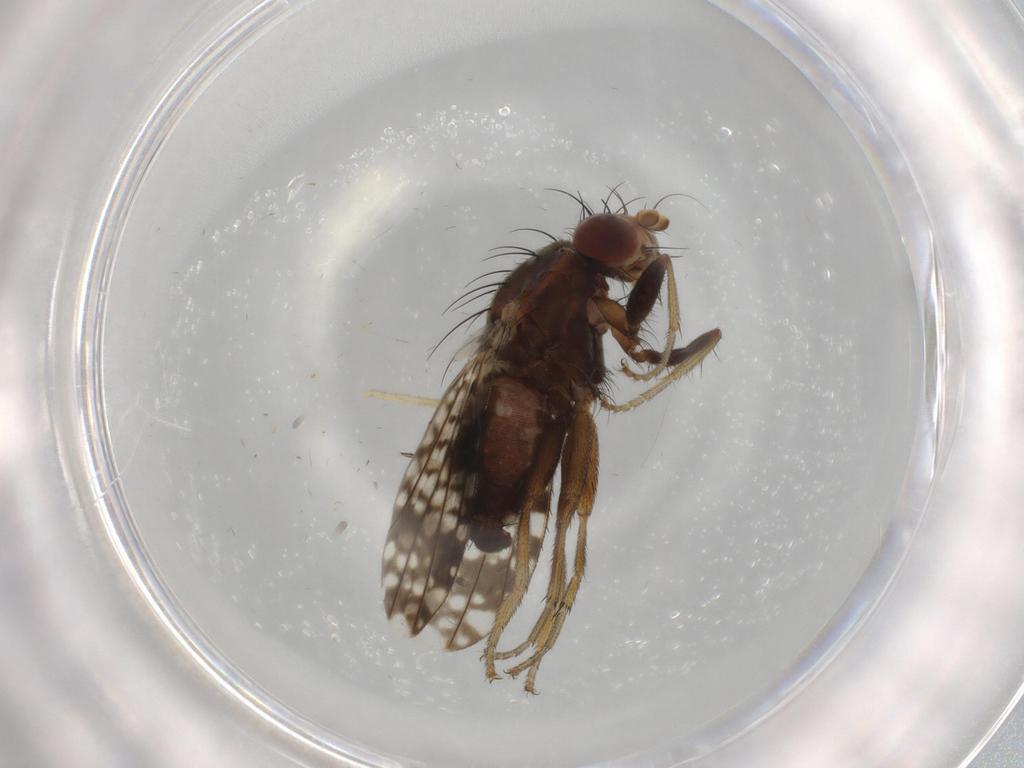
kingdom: Animalia
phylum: Arthropoda
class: Insecta
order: Diptera
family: Tephritidae
